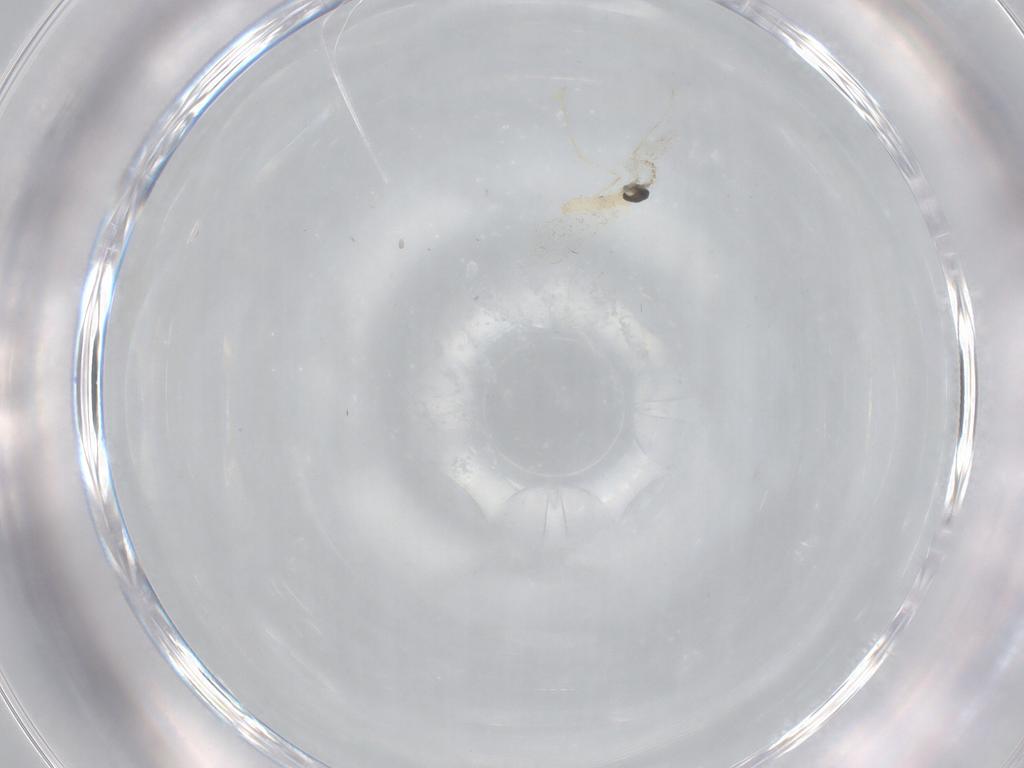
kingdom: Animalia
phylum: Arthropoda
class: Insecta
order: Diptera
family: Cecidomyiidae
